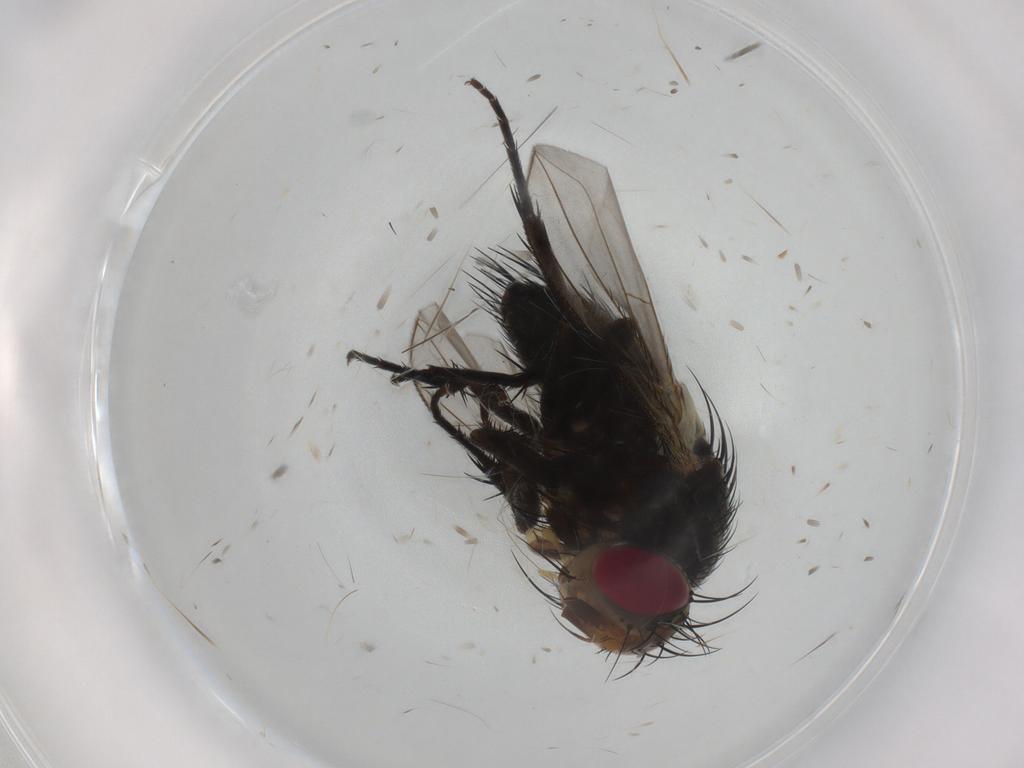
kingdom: Animalia
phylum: Arthropoda
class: Insecta
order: Diptera
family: Tachinidae
